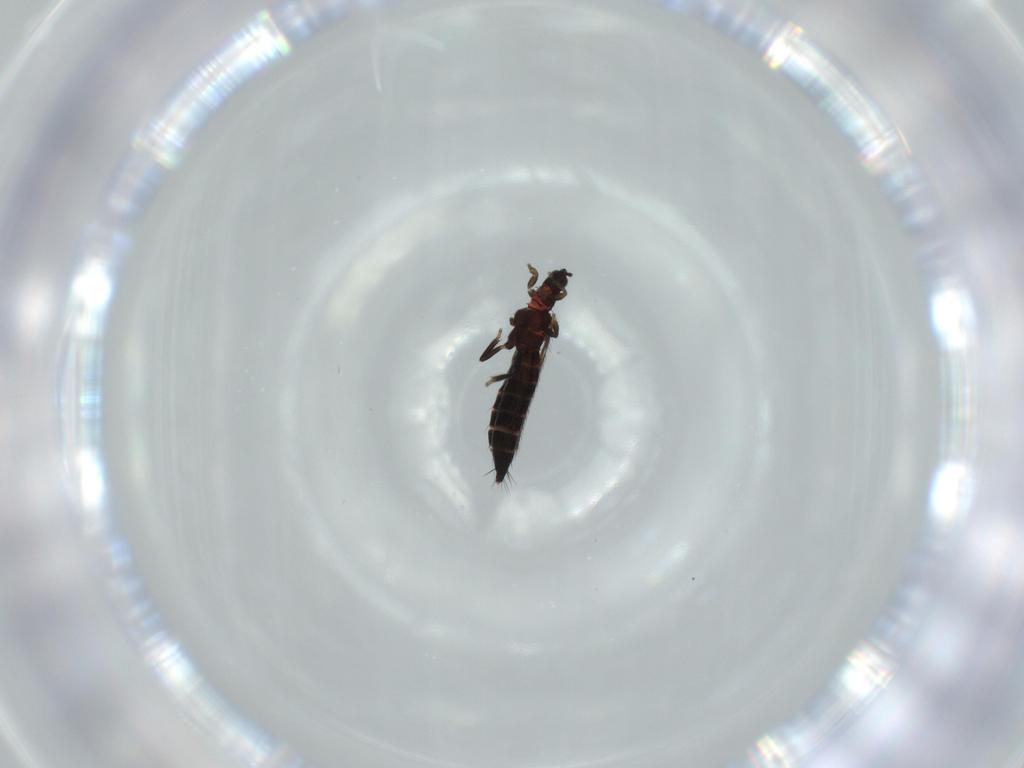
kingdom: Animalia
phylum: Arthropoda
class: Insecta
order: Thysanoptera
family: Thripidae
